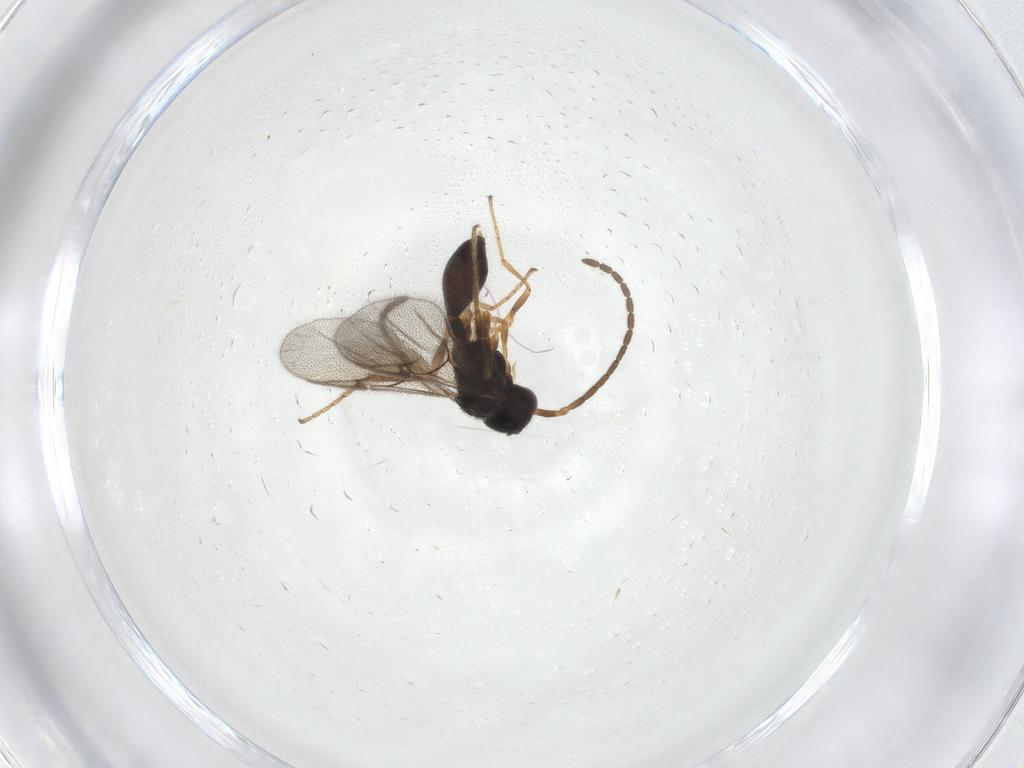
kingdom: Animalia
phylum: Arthropoda
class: Insecta
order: Hymenoptera
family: Diapriidae
